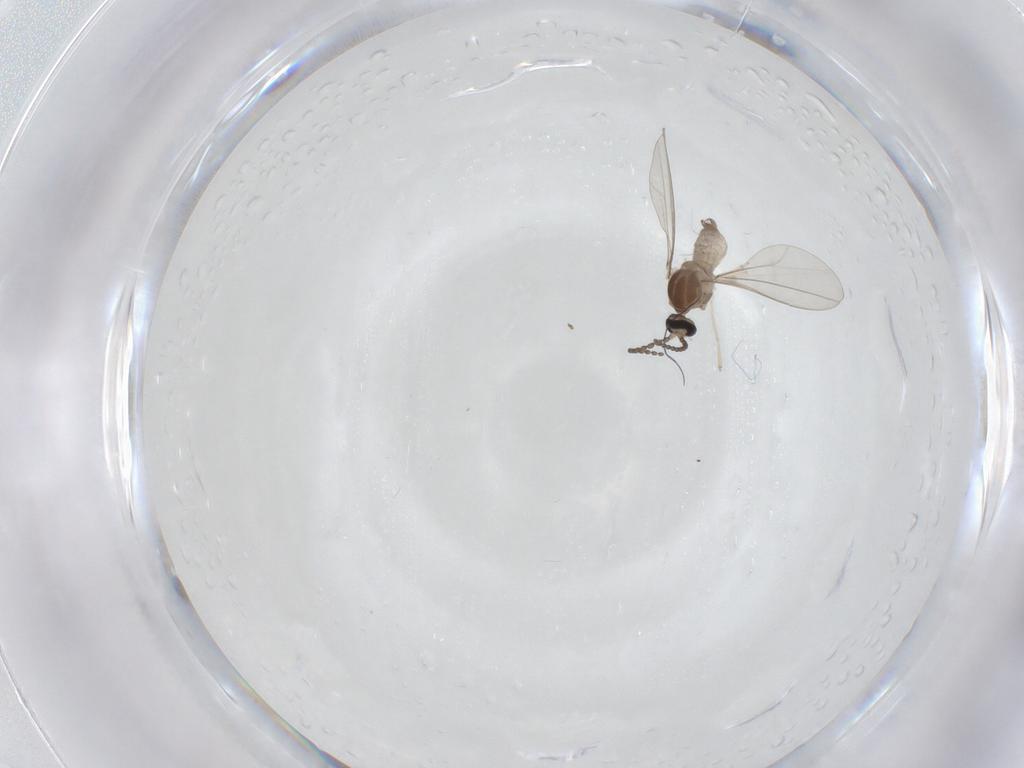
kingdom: Animalia
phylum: Arthropoda
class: Insecta
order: Diptera
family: Cecidomyiidae
